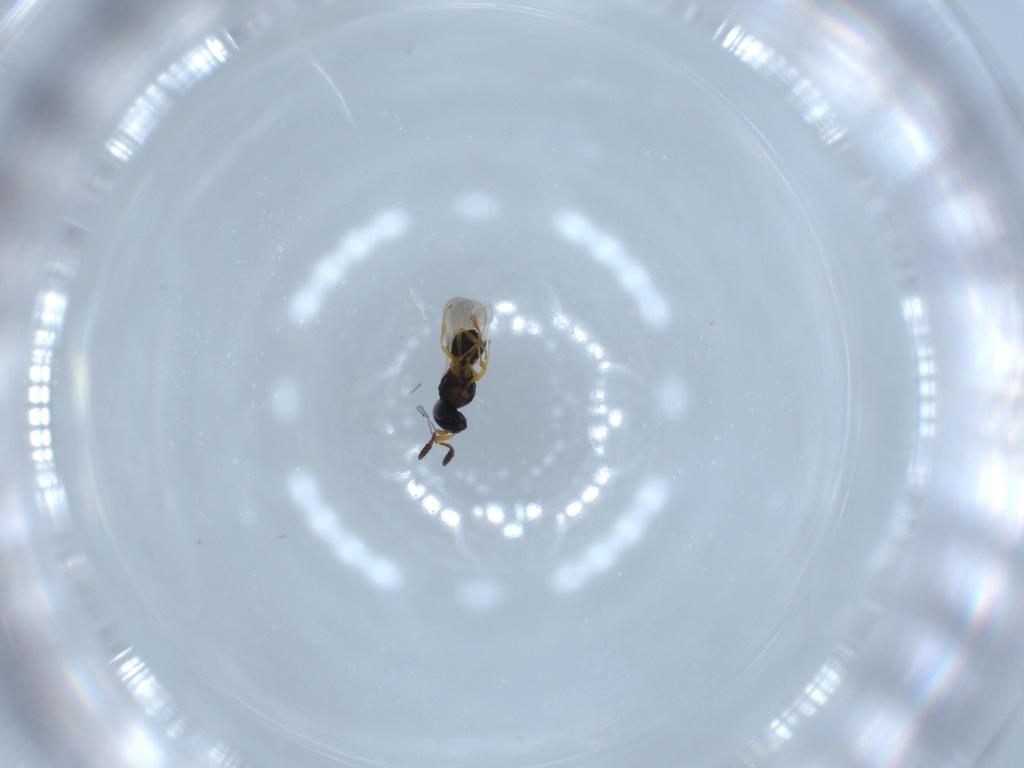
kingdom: Animalia
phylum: Arthropoda
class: Insecta
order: Hymenoptera
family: Scelionidae
